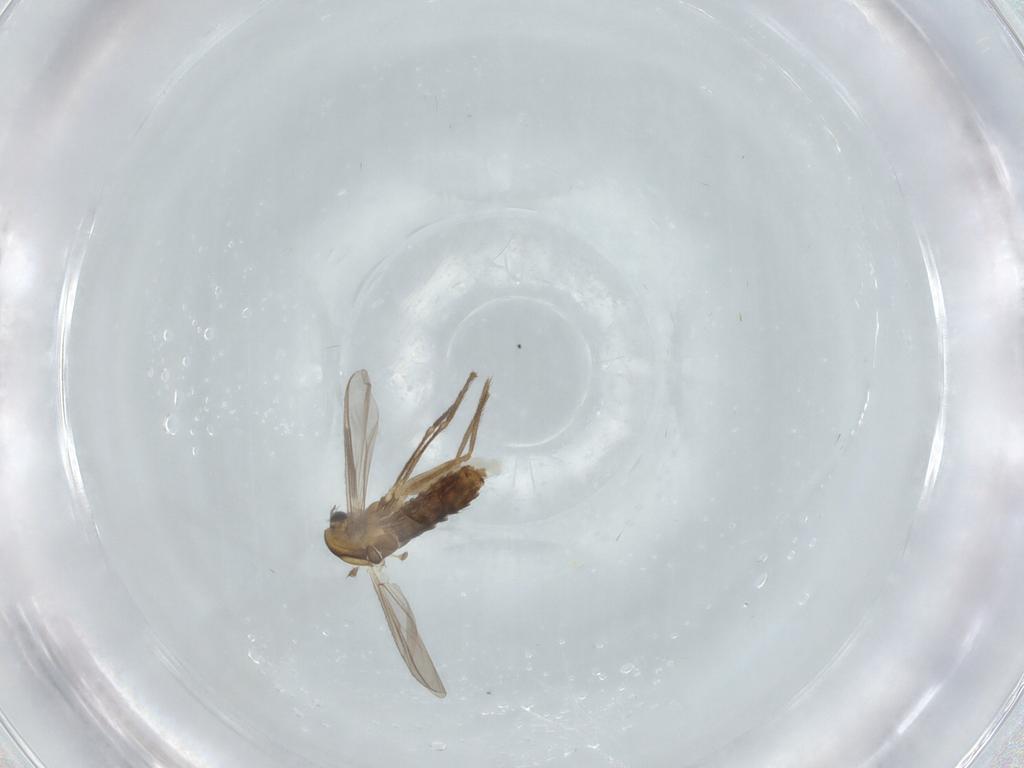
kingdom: Animalia
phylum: Arthropoda
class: Insecta
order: Diptera
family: Chironomidae
